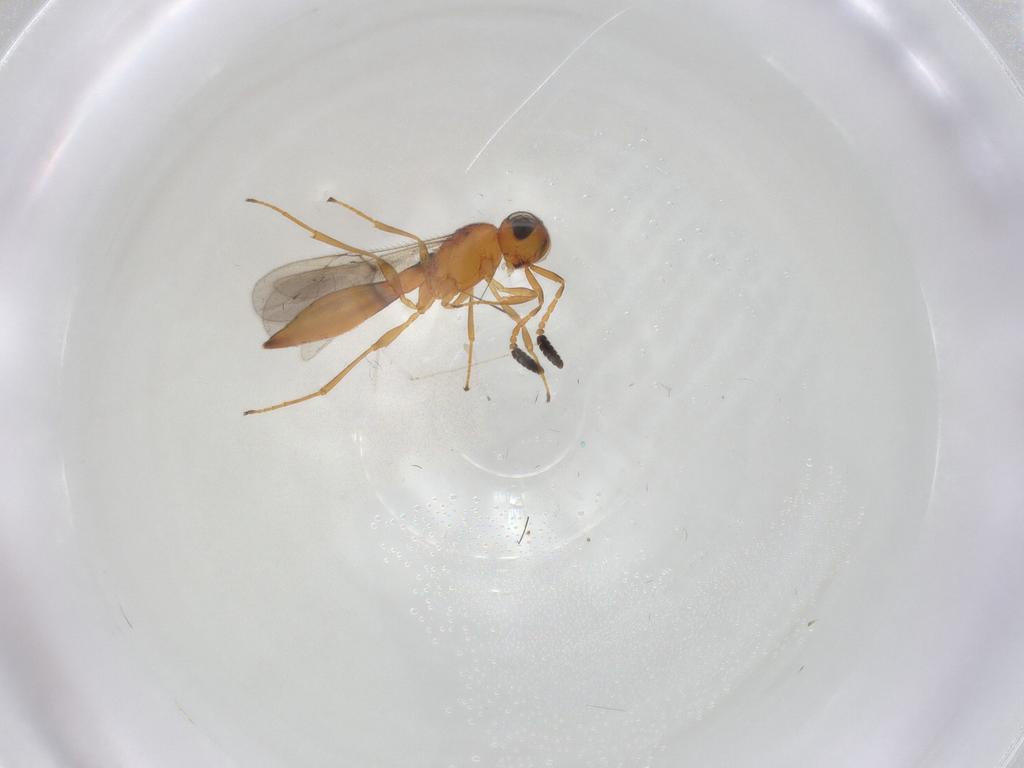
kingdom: Animalia
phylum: Arthropoda
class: Insecta
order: Hymenoptera
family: Scelionidae
